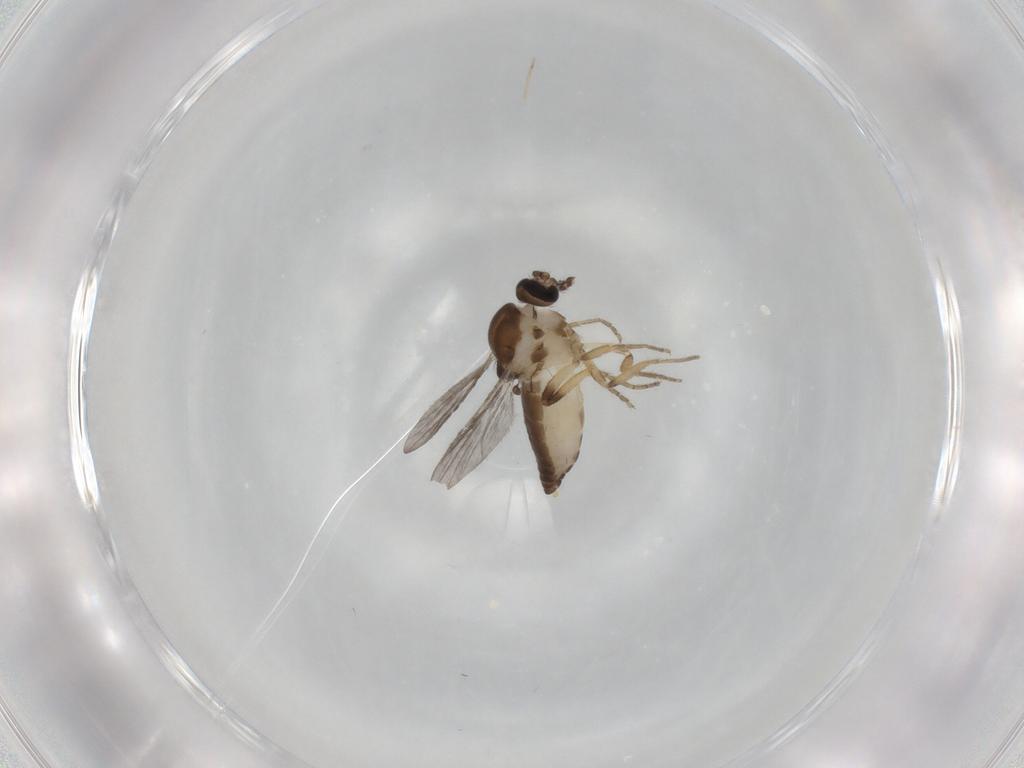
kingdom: Animalia
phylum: Arthropoda
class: Insecta
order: Diptera
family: Ceratopogonidae
